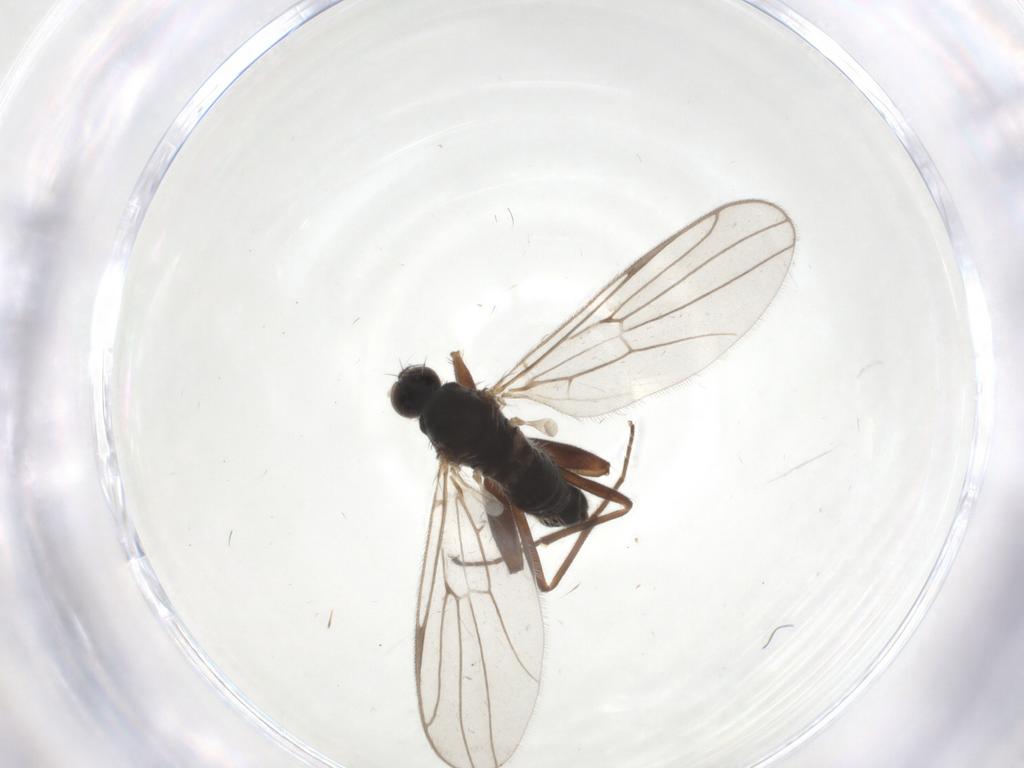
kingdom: Animalia
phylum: Arthropoda
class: Insecta
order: Diptera
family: Hybotidae
